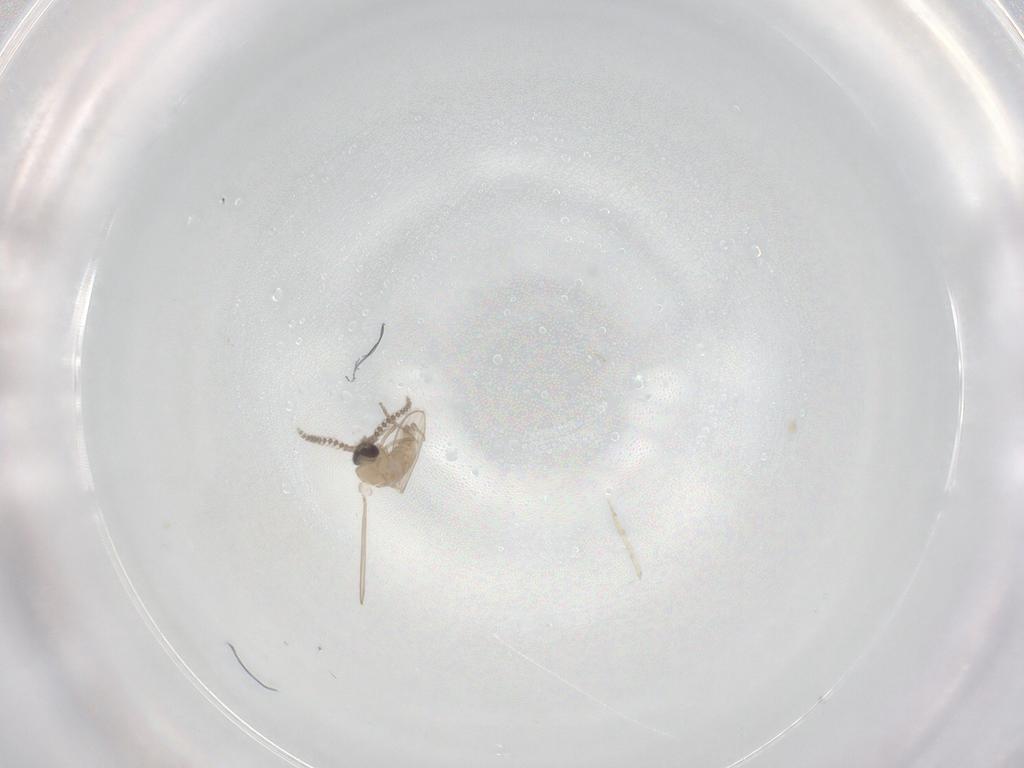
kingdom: Animalia
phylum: Arthropoda
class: Insecta
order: Diptera
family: Psychodidae
